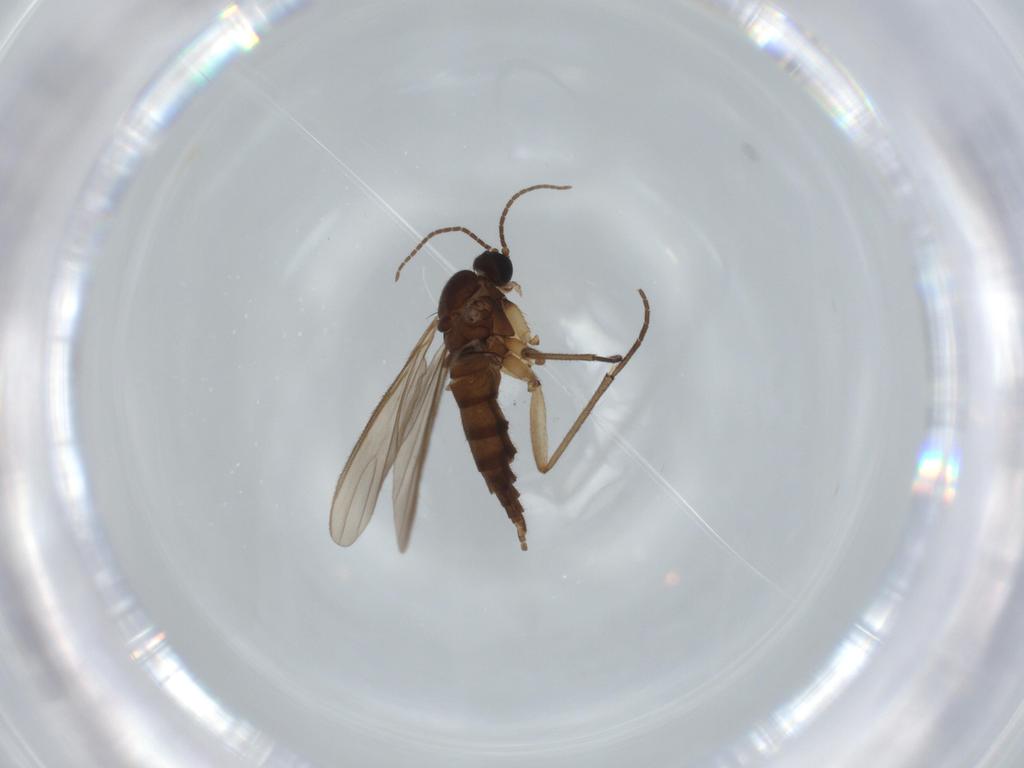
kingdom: Animalia
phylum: Arthropoda
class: Insecta
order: Diptera
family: Sciaridae
